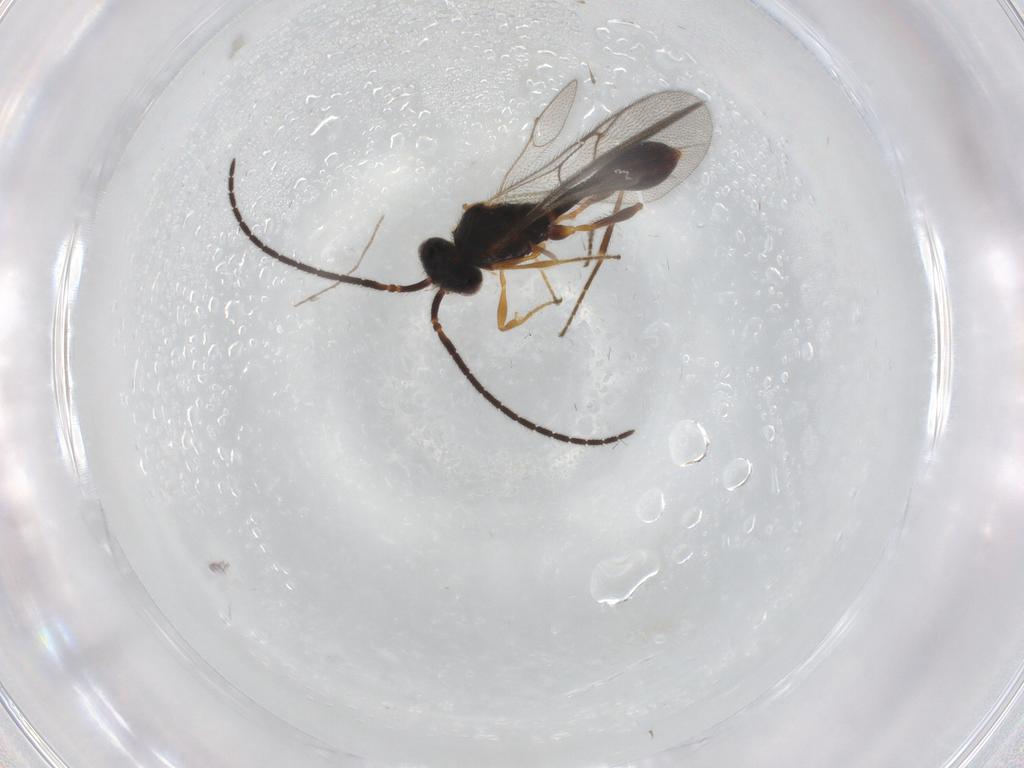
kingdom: Animalia
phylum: Arthropoda
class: Insecta
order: Hymenoptera
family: Diapriidae
